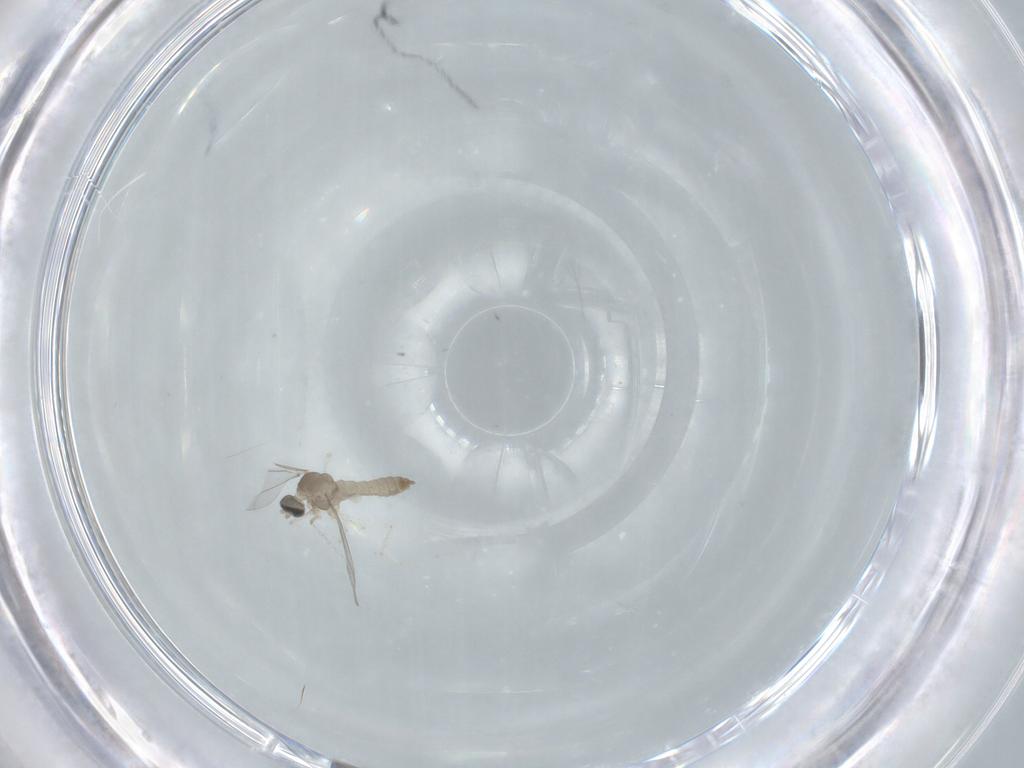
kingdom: Animalia
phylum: Arthropoda
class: Insecta
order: Diptera
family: Cecidomyiidae
